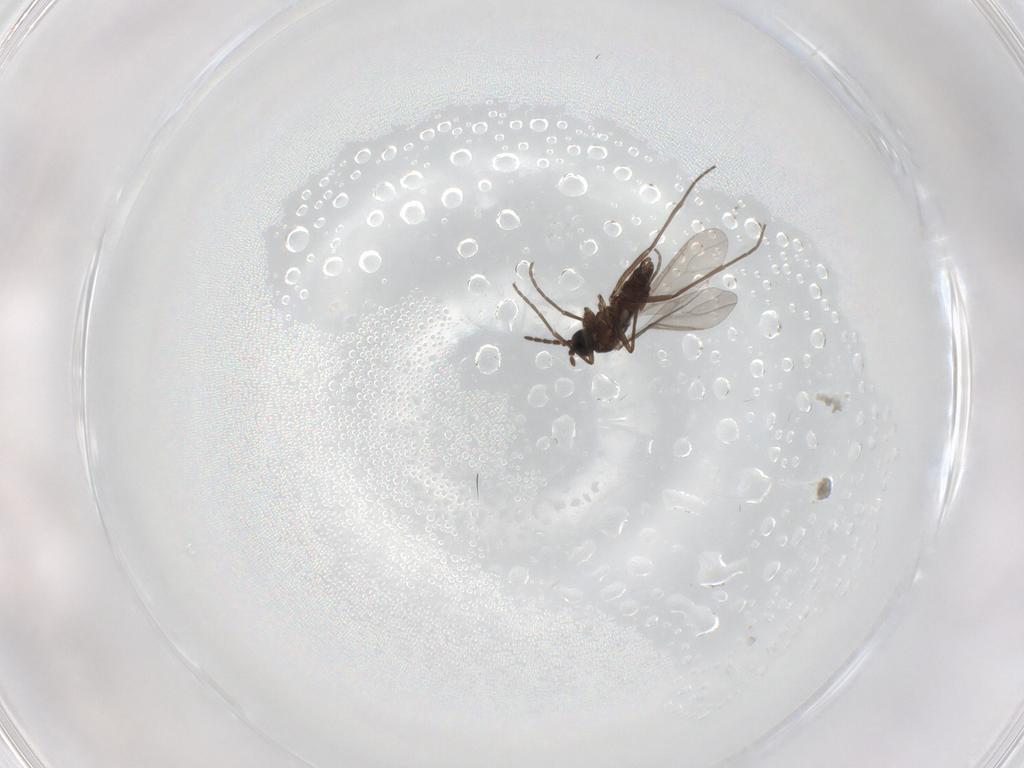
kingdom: Animalia
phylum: Arthropoda
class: Insecta
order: Diptera
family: Sciaridae
